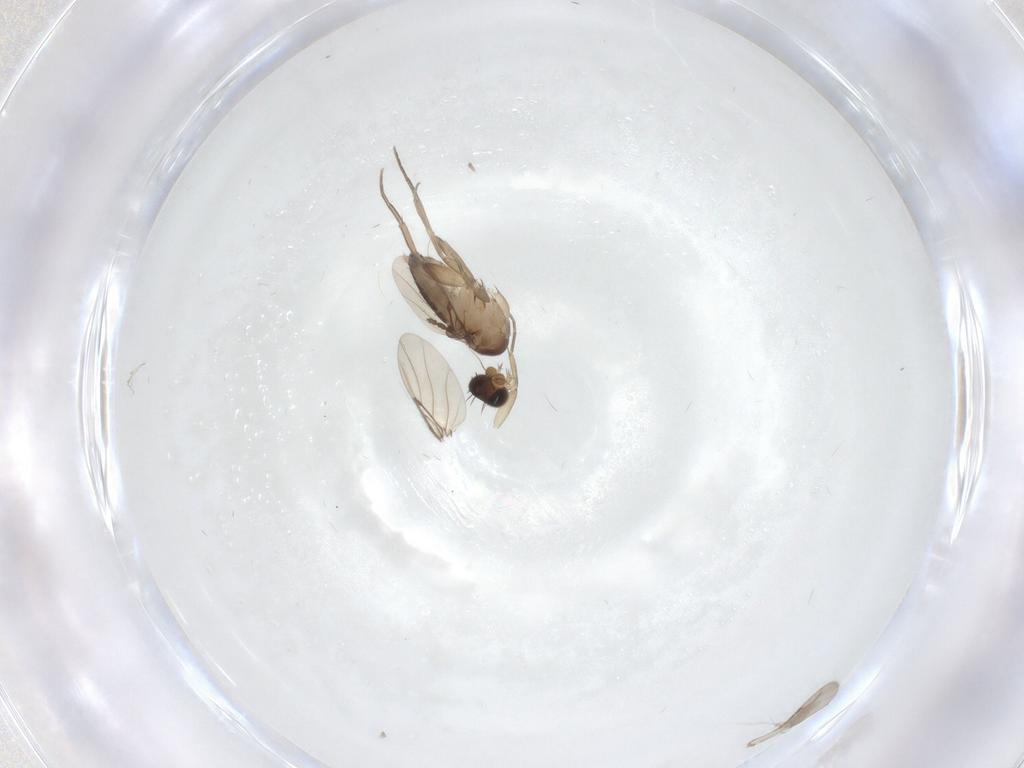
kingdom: Animalia
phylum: Arthropoda
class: Insecta
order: Diptera
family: Phoridae
